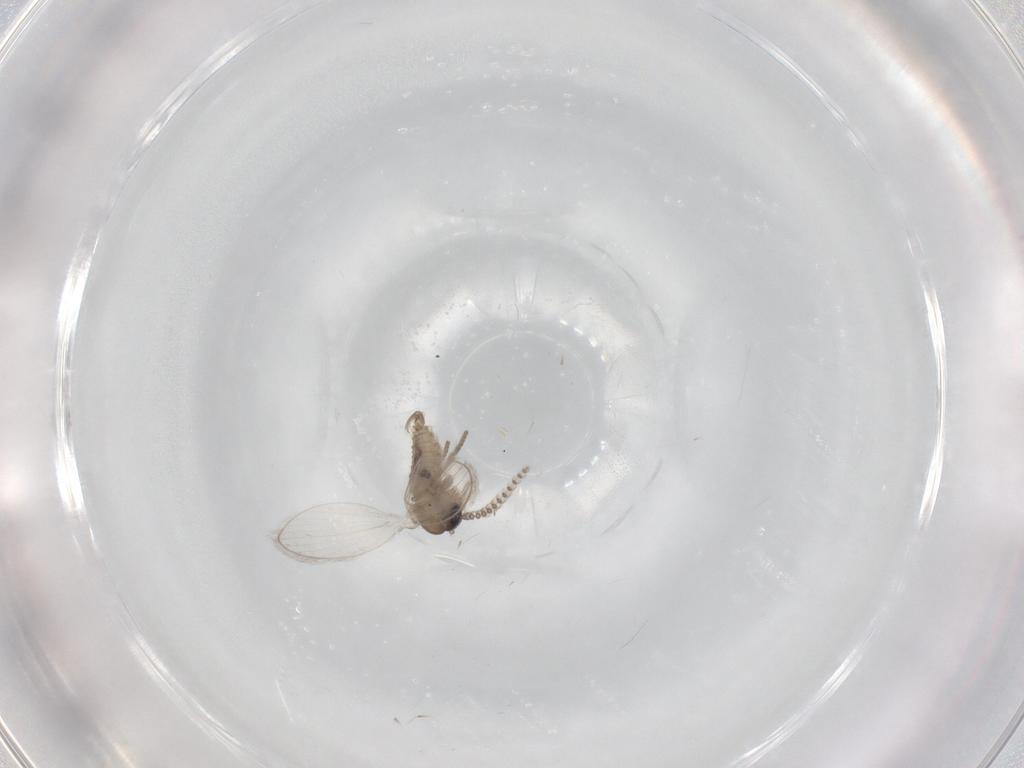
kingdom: Animalia
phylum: Arthropoda
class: Insecta
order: Diptera
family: Psychodidae
